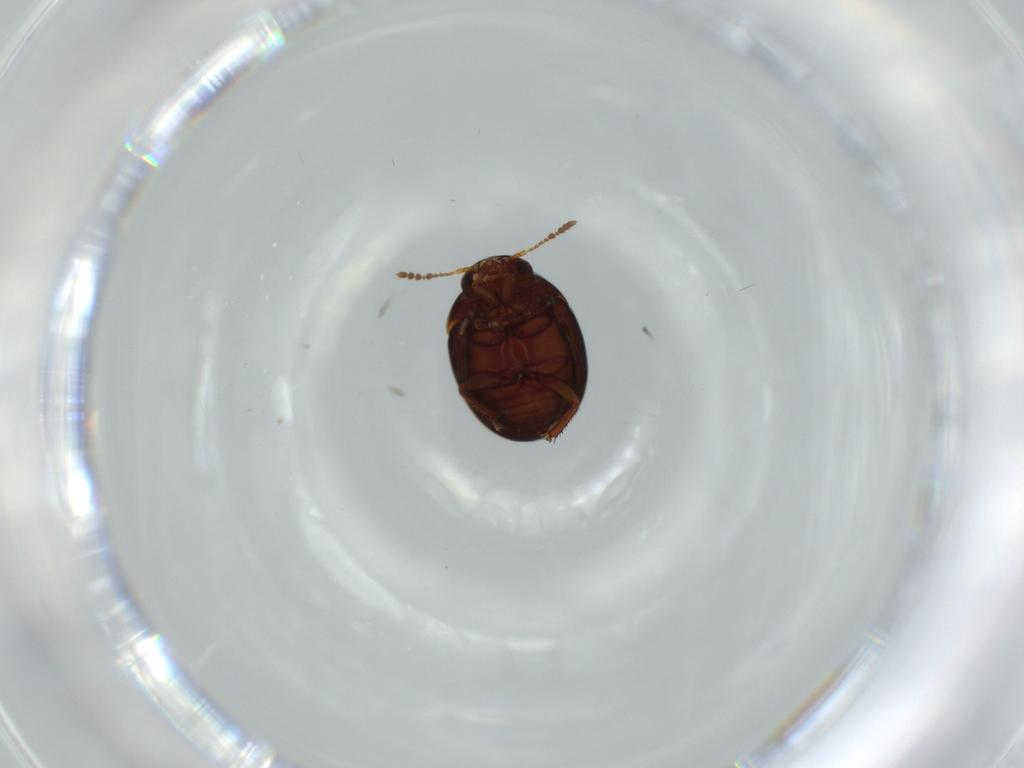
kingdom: Animalia
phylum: Arthropoda
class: Insecta
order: Coleoptera
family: Leiodidae
